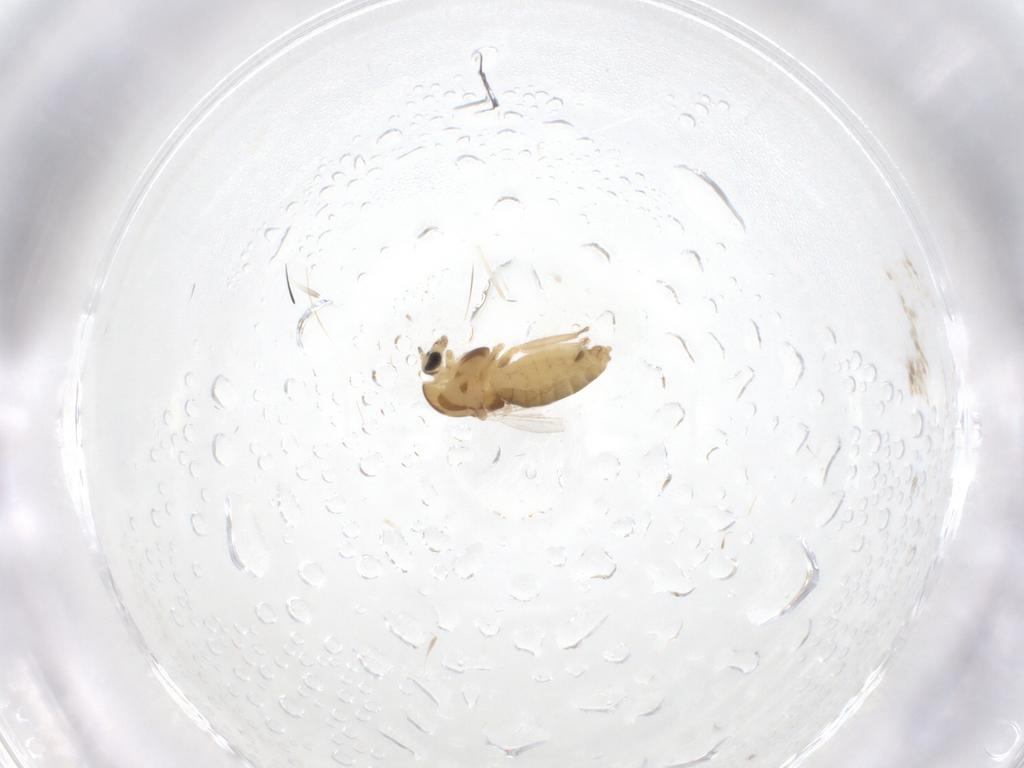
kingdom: Animalia
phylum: Arthropoda
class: Insecta
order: Diptera
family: Chironomidae
